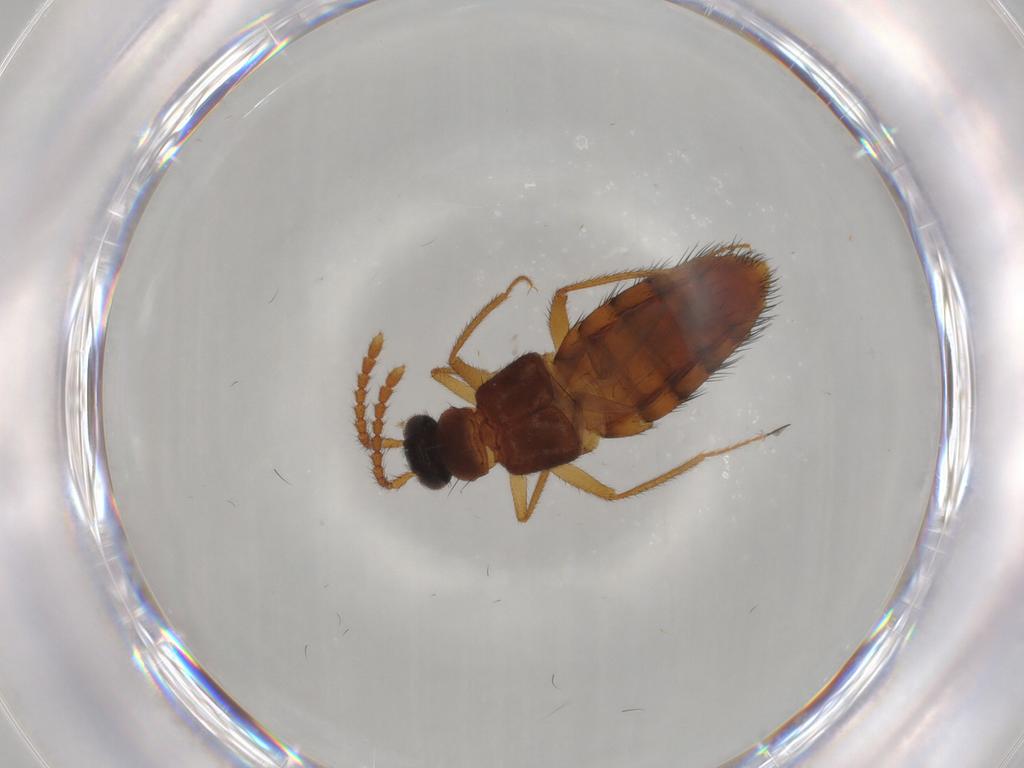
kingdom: Animalia
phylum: Arthropoda
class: Insecta
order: Coleoptera
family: Staphylinidae
